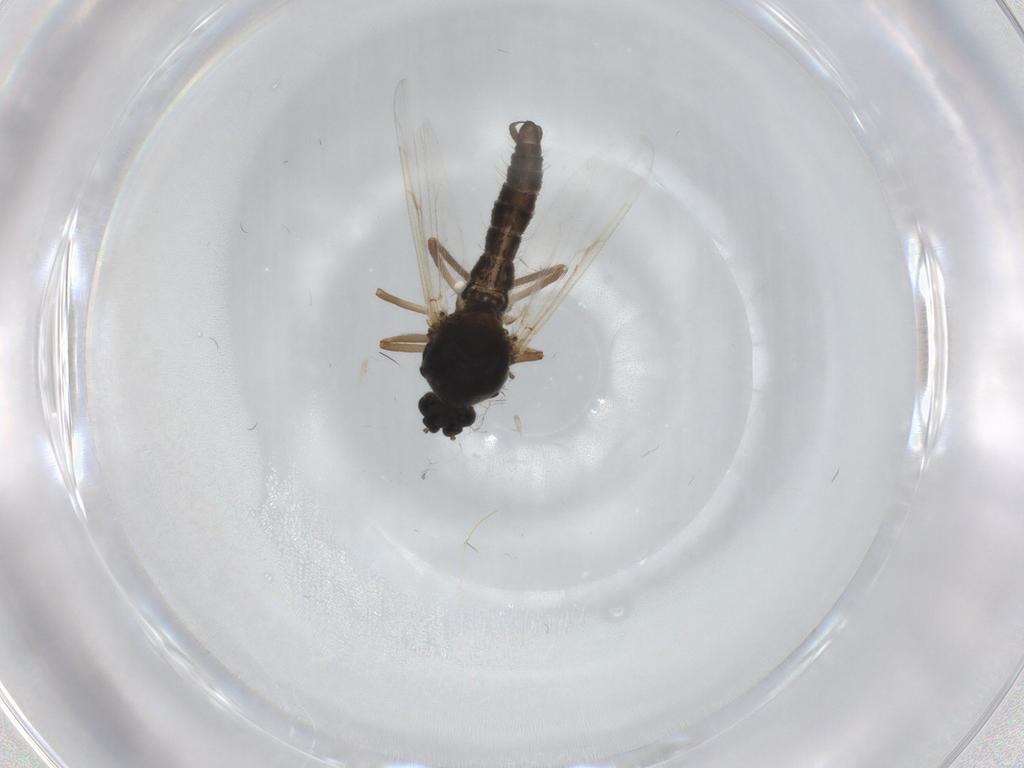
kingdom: Animalia
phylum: Arthropoda
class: Insecta
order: Diptera
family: Ceratopogonidae
